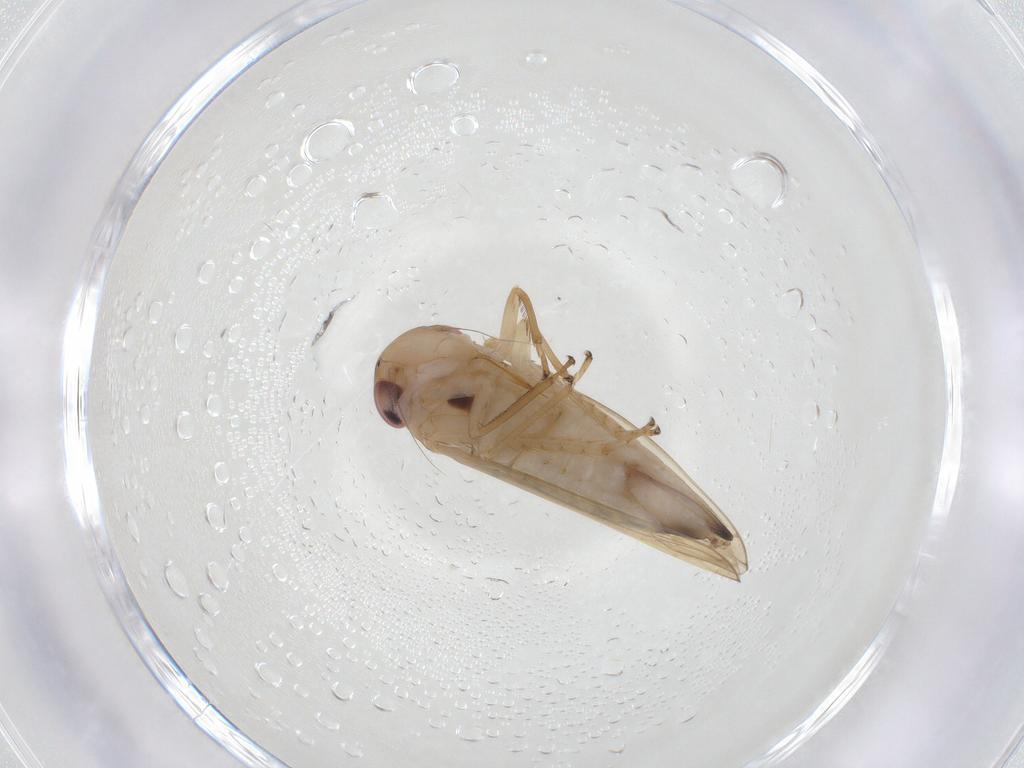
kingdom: Animalia
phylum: Arthropoda
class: Insecta
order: Hemiptera
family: Cicadellidae
